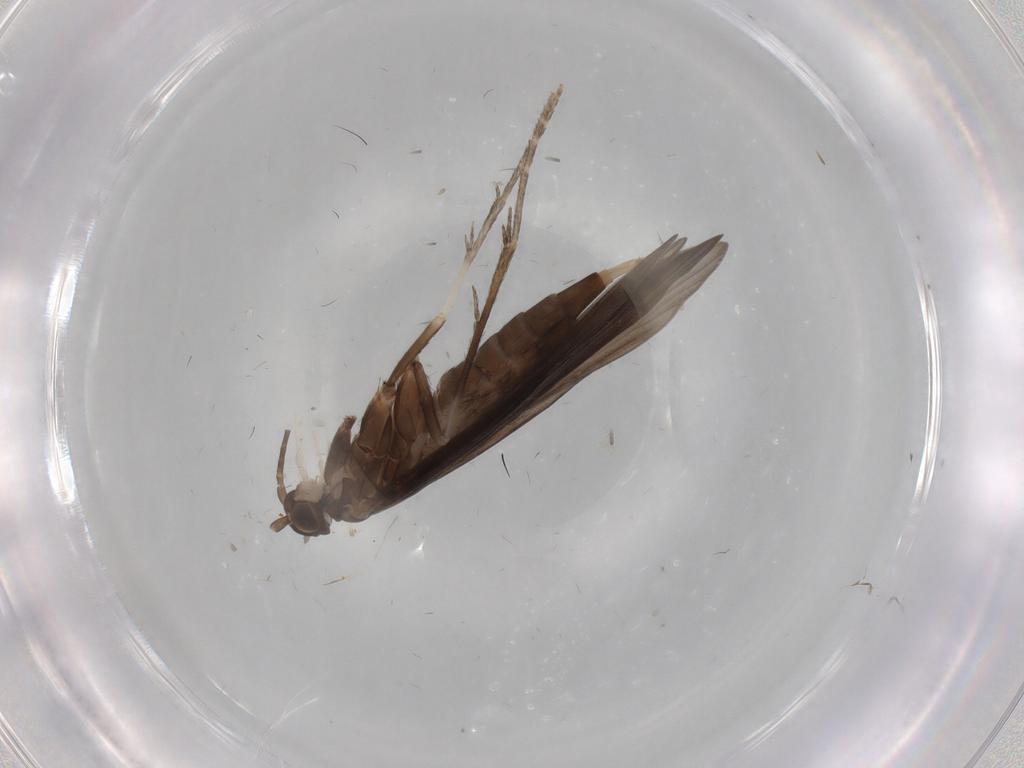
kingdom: Animalia
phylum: Arthropoda
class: Insecta
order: Trichoptera
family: Xiphocentronidae
